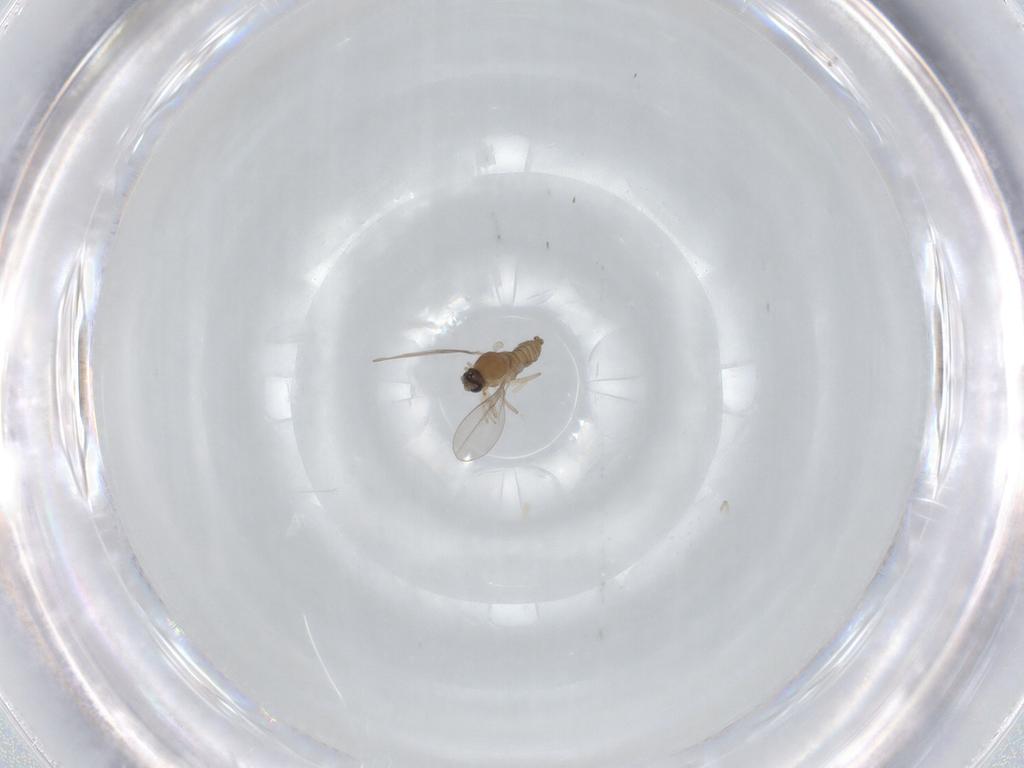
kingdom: Animalia
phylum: Arthropoda
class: Insecta
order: Diptera
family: Cecidomyiidae
